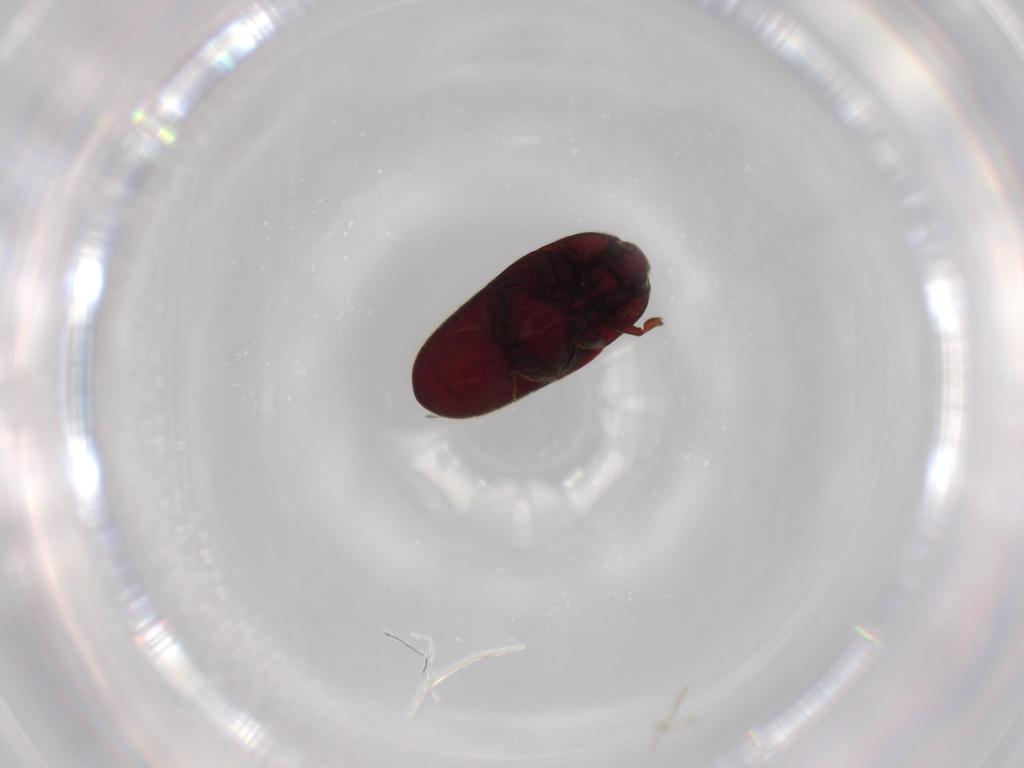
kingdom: Animalia
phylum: Arthropoda
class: Insecta
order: Coleoptera
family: Throscidae
